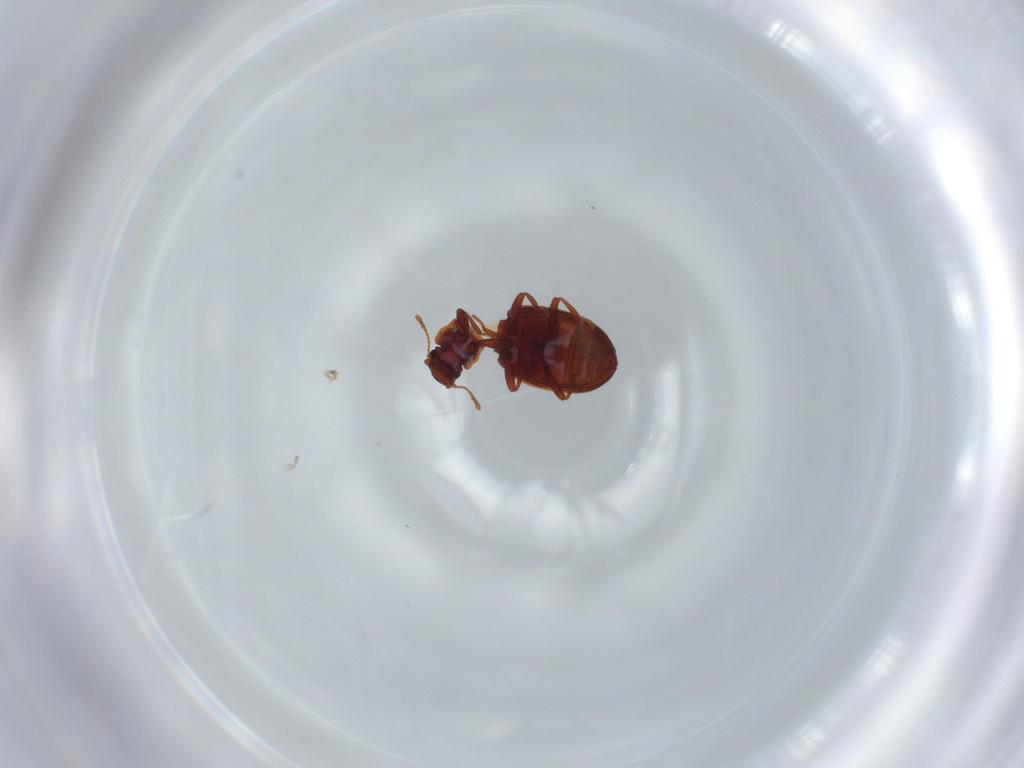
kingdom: Animalia
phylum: Arthropoda
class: Insecta
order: Coleoptera
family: Latridiidae
